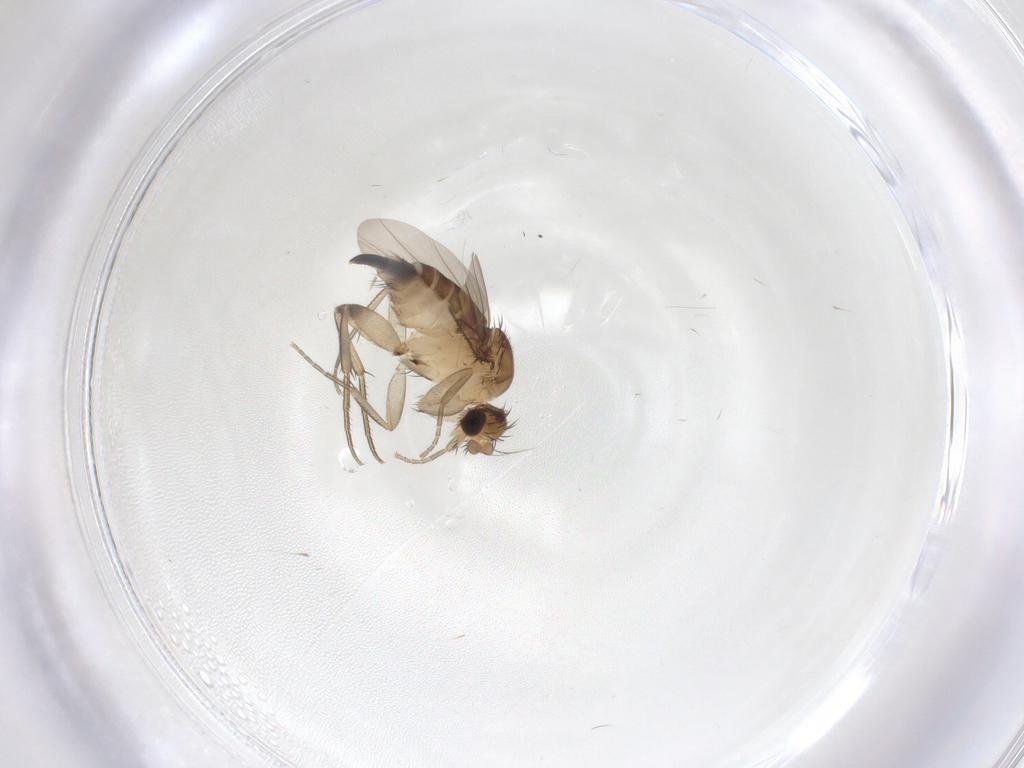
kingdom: Animalia
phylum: Arthropoda
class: Insecta
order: Diptera
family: Phoridae
